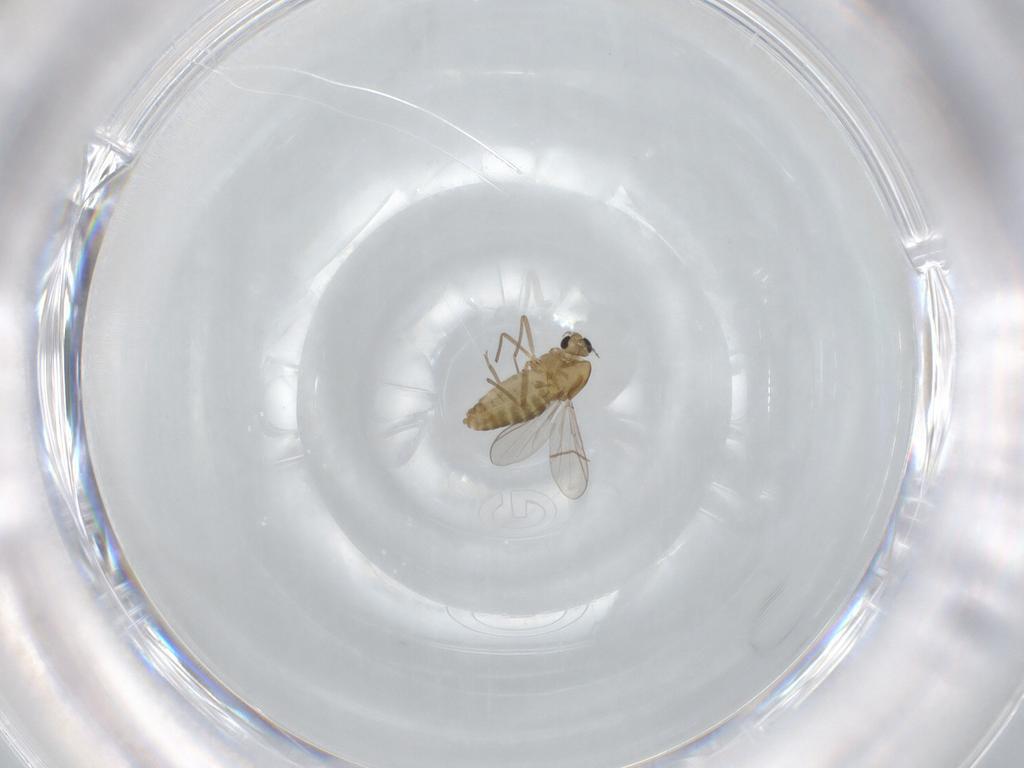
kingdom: Animalia
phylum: Arthropoda
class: Insecta
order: Diptera
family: Chironomidae
